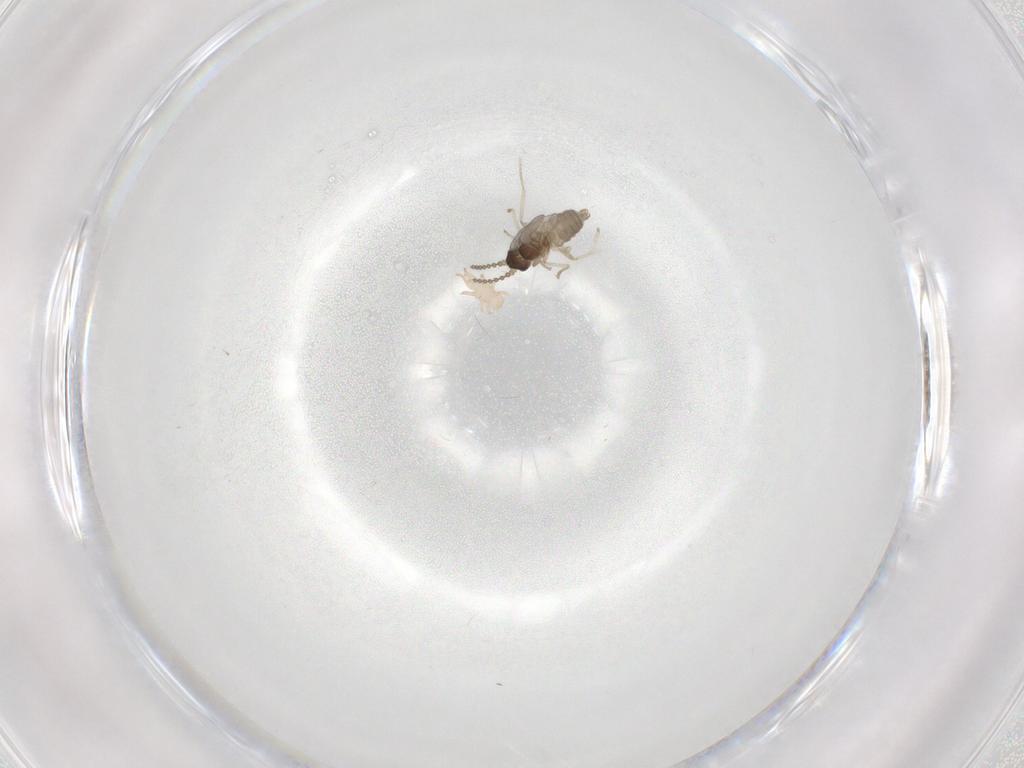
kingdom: Animalia
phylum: Arthropoda
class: Insecta
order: Diptera
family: Cecidomyiidae
